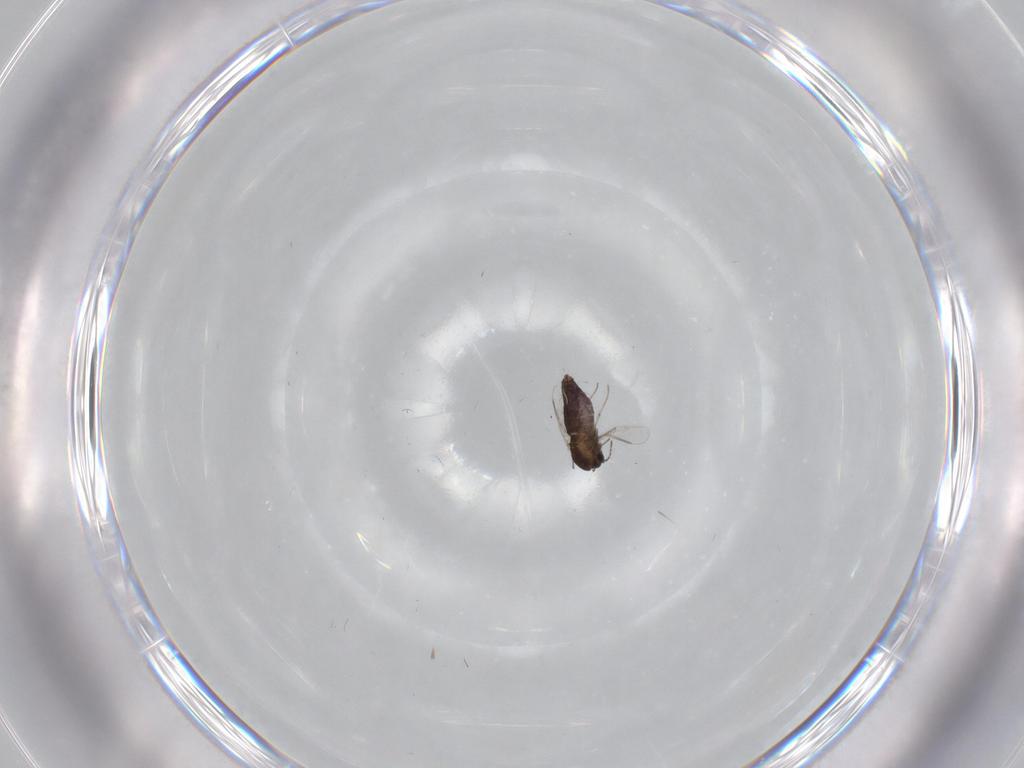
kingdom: Animalia
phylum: Arthropoda
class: Insecta
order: Diptera
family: Chironomidae
